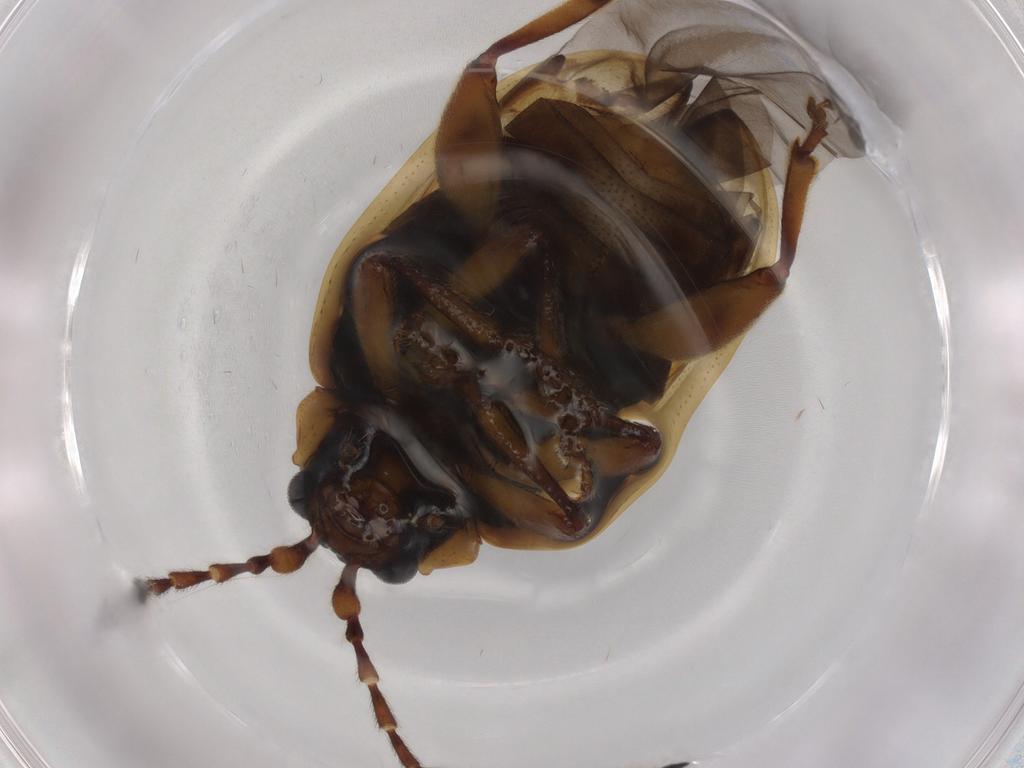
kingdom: Animalia
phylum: Arthropoda
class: Insecta
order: Coleoptera
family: Chrysomelidae
